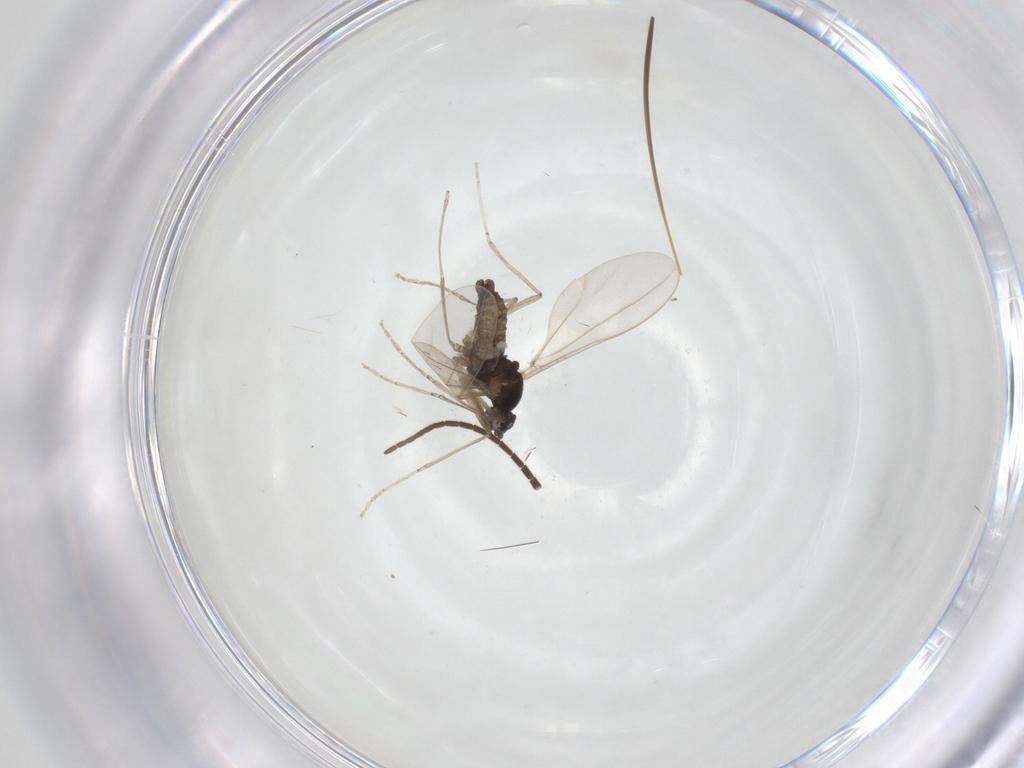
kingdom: Animalia
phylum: Arthropoda
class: Insecta
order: Diptera
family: Cecidomyiidae
